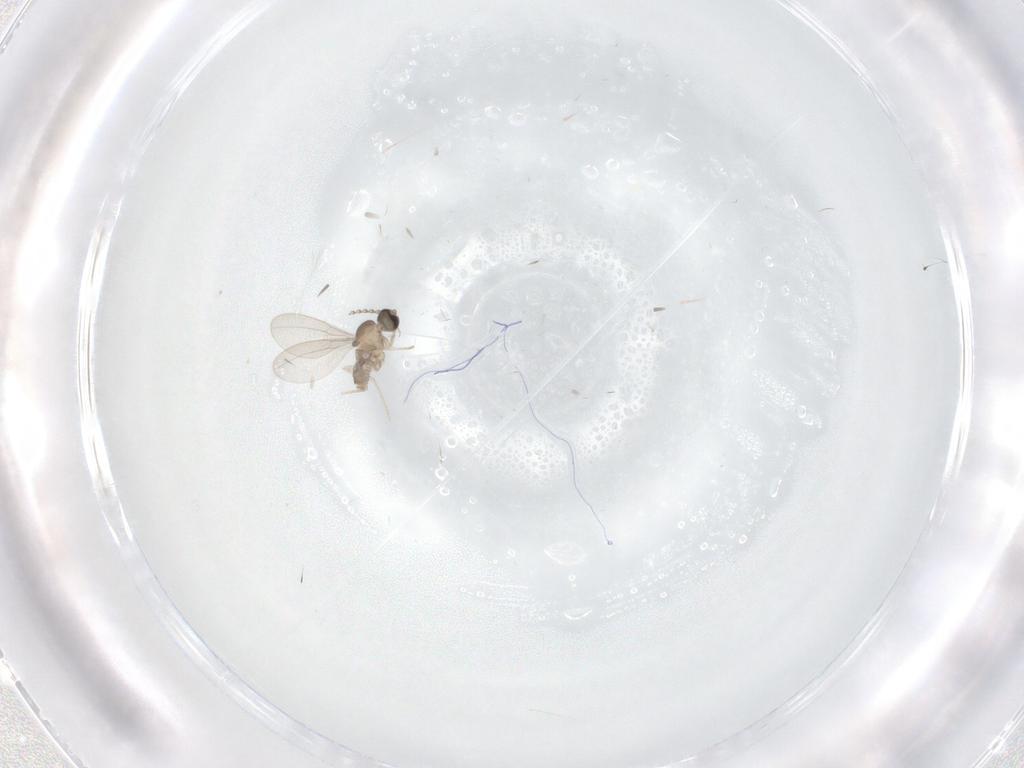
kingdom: Animalia
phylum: Arthropoda
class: Insecta
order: Diptera
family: Cecidomyiidae
